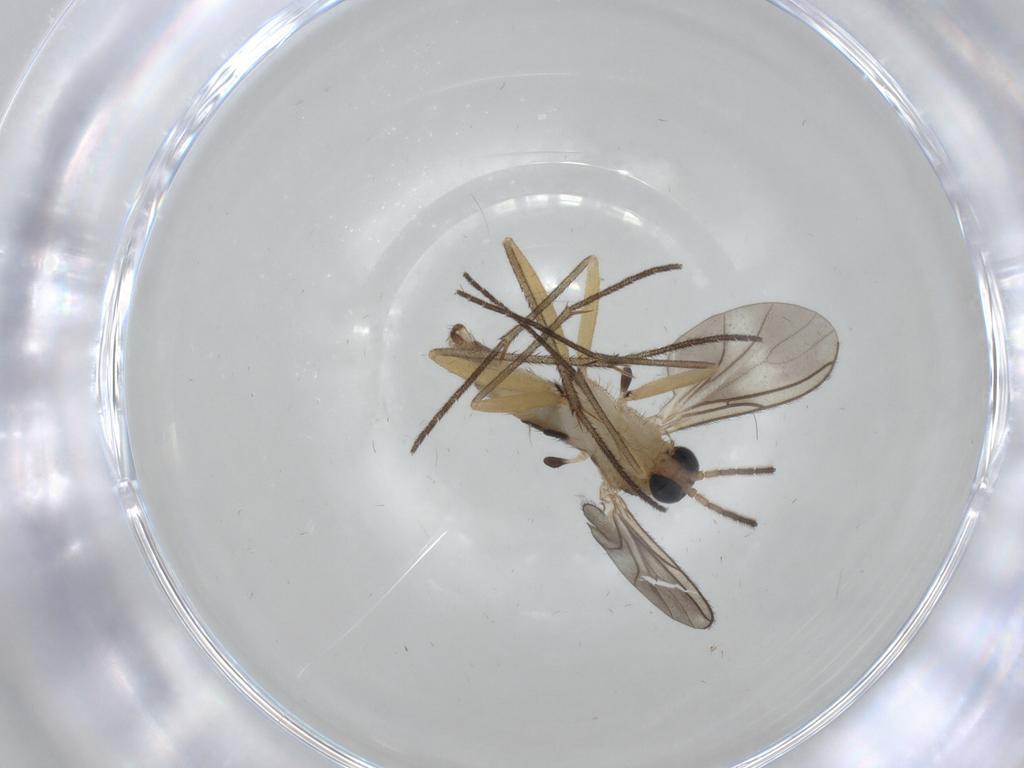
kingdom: Animalia
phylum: Arthropoda
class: Insecta
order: Diptera
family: Sciaridae
